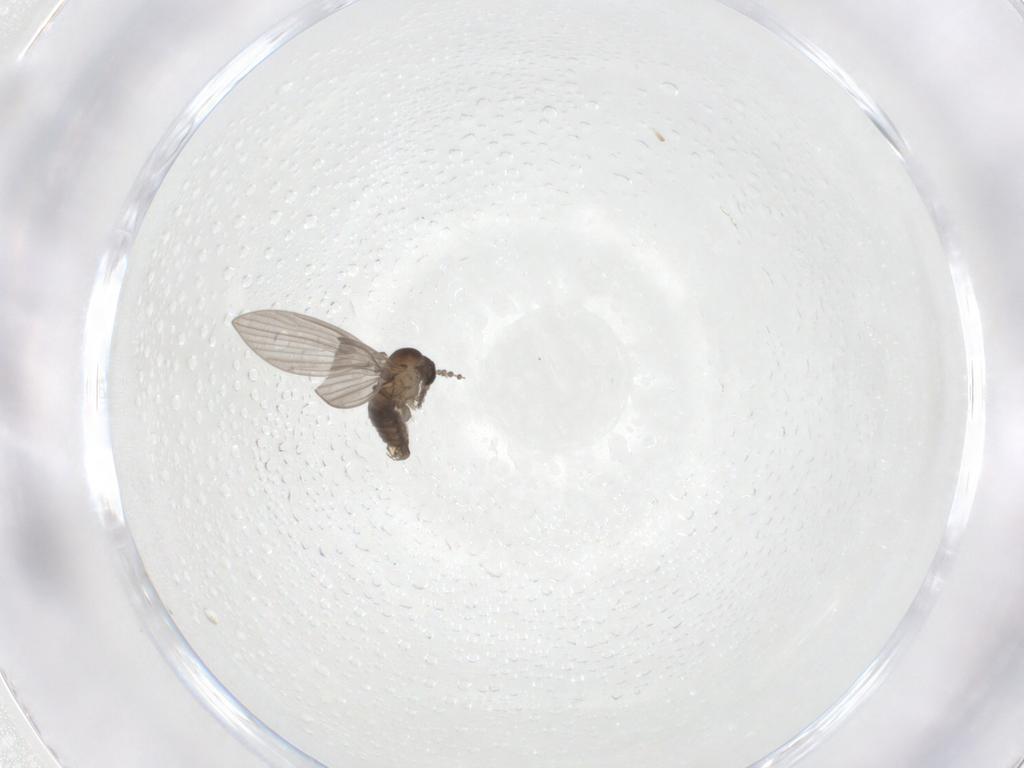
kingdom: Animalia
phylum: Arthropoda
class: Insecta
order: Diptera
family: Psychodidae
